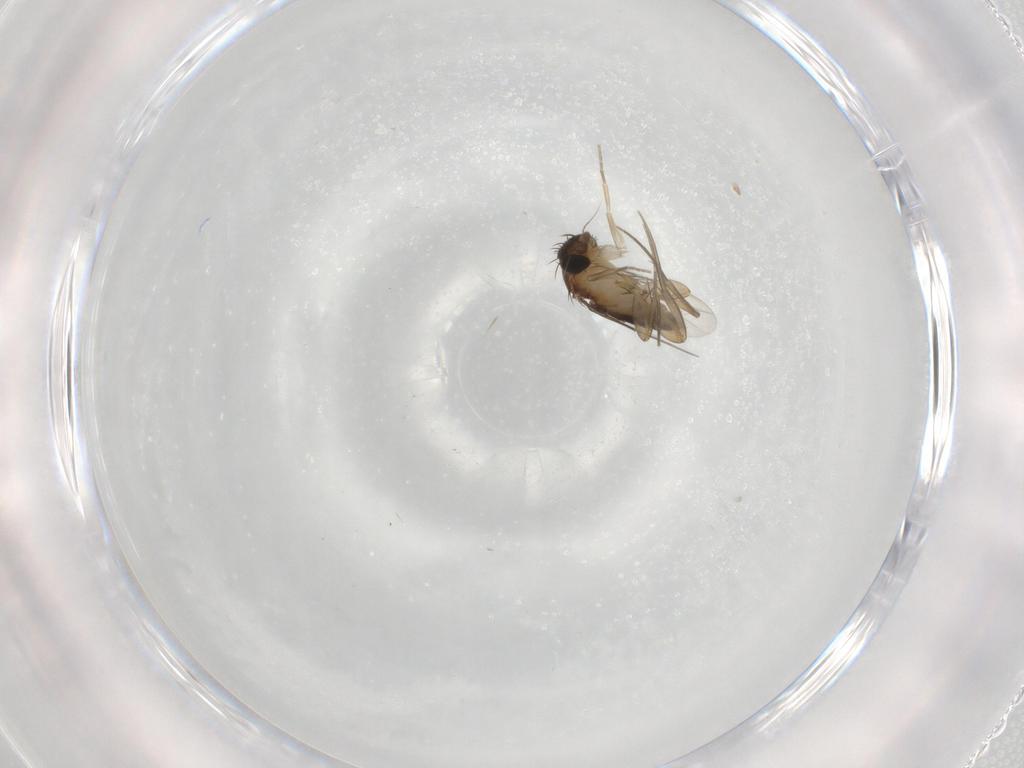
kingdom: Animalia
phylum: Arthropoda
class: Insecta
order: Diptera
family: Phoridae
